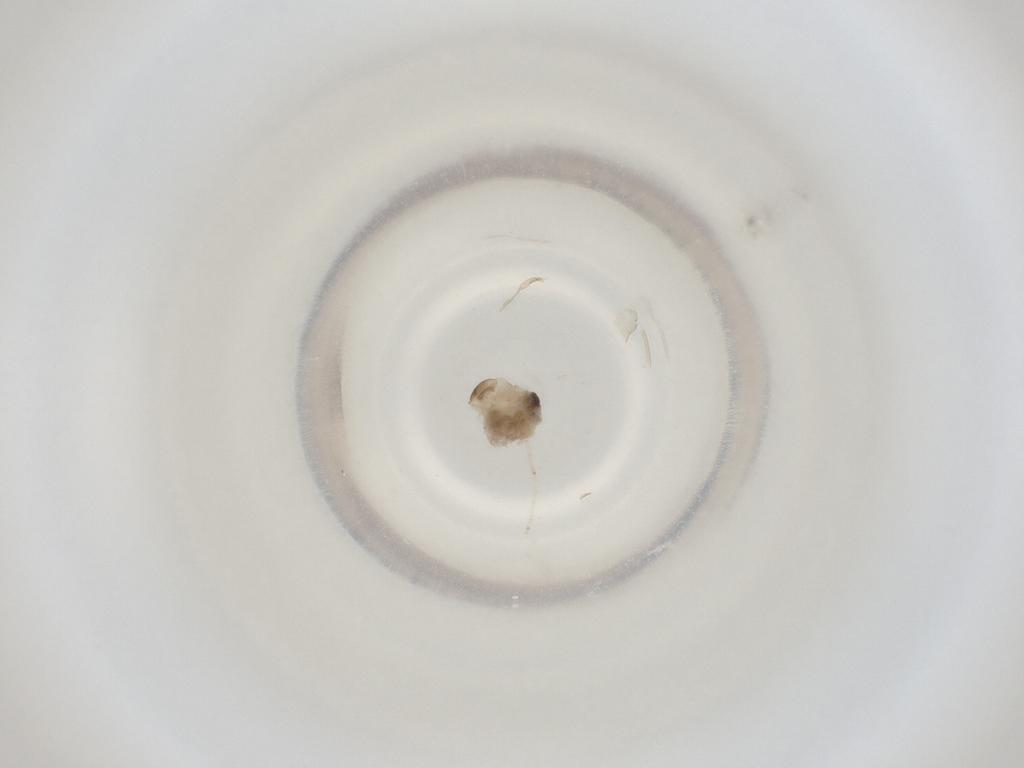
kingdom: Animalia
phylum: Arthropoda
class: Insecta
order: Diptera
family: Cecidomyiidae
